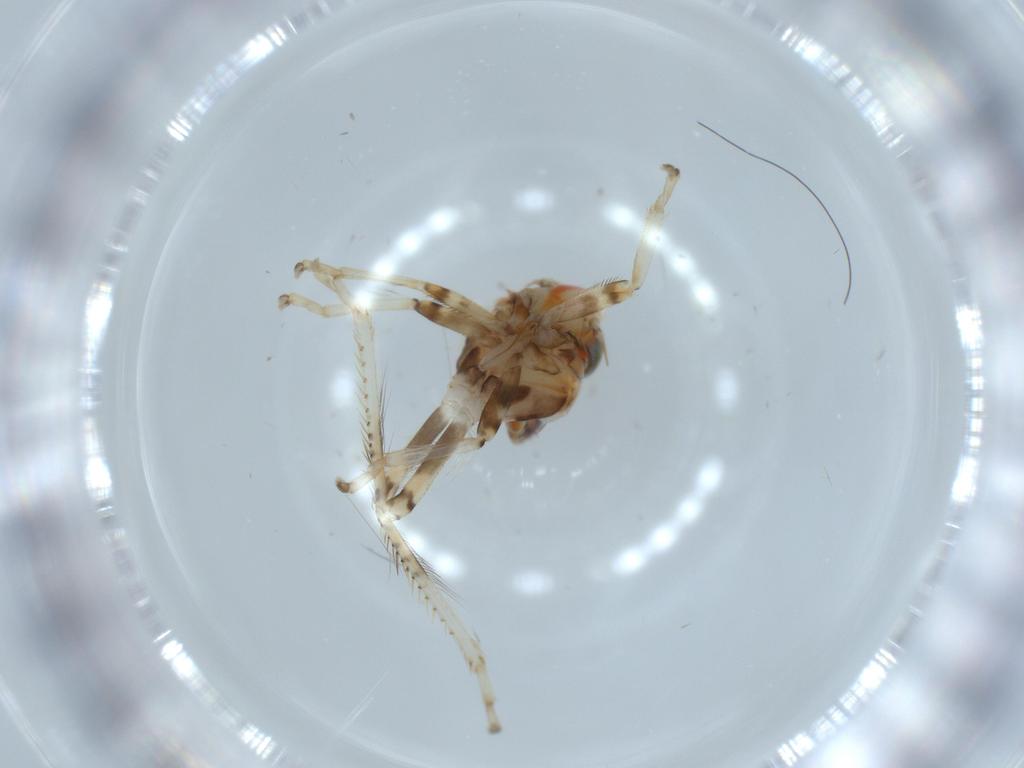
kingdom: Animalia
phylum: Arthropoda
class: Insecta
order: Hemiptera
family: Cicadellidae
